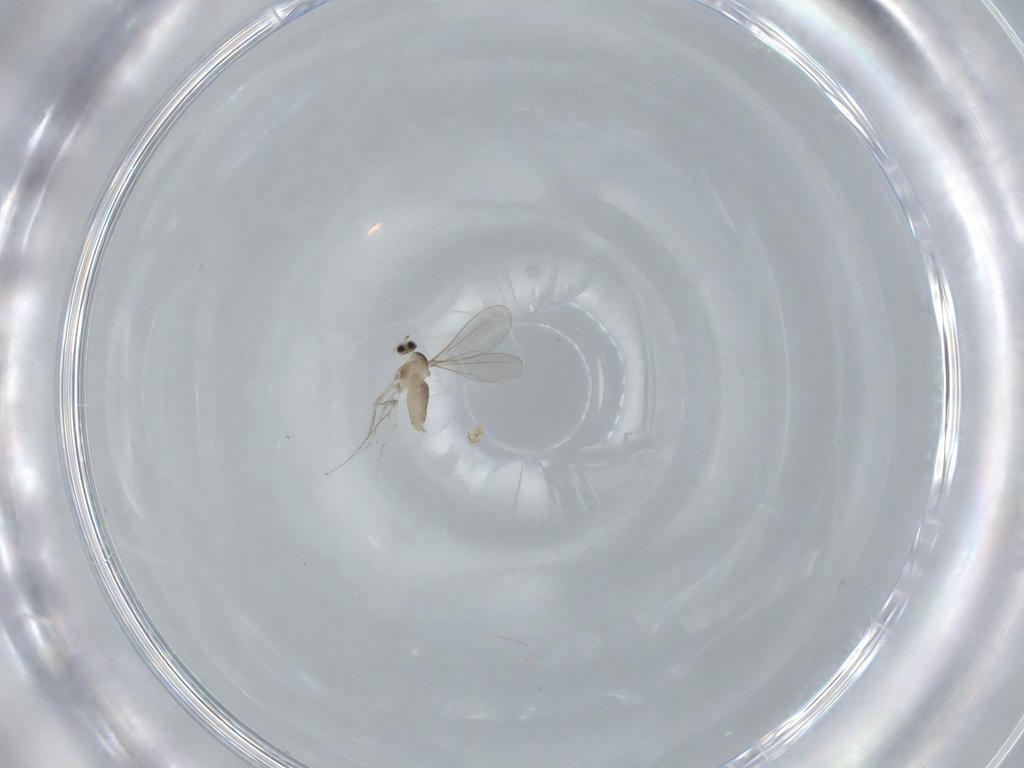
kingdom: Animalia
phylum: Arthropoda
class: Insecta
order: Diptera
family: Cecidomyiidae
